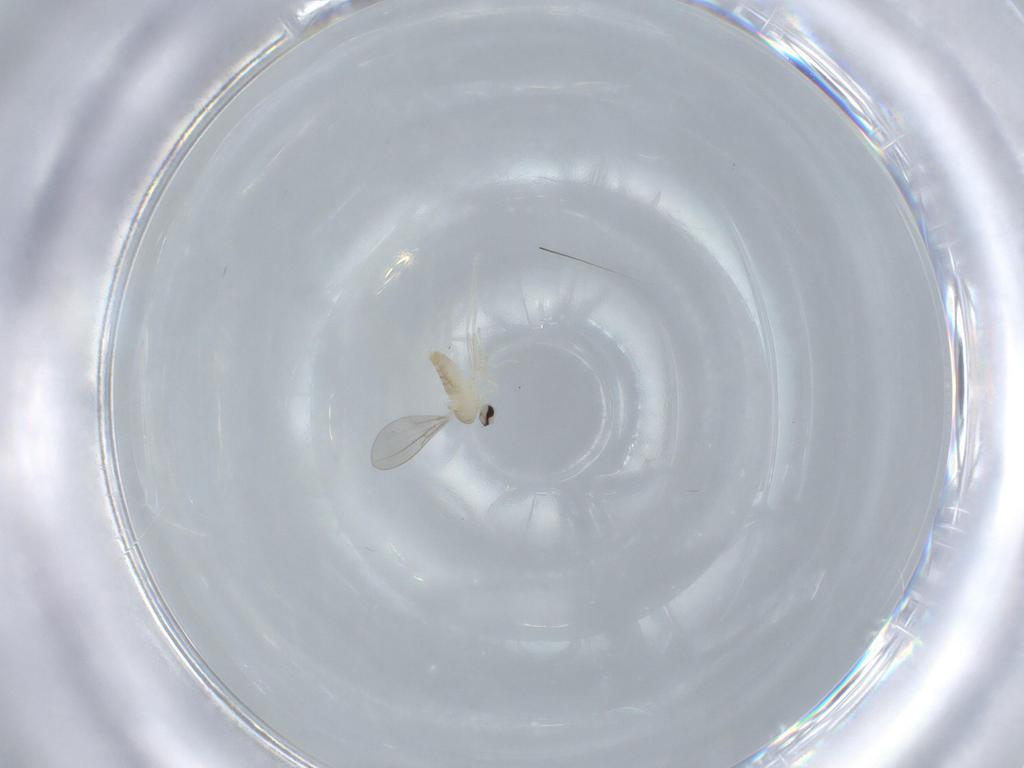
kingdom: Animalia
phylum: Arthropoda
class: Insecta
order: Diptera
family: Cecidomyiidae
